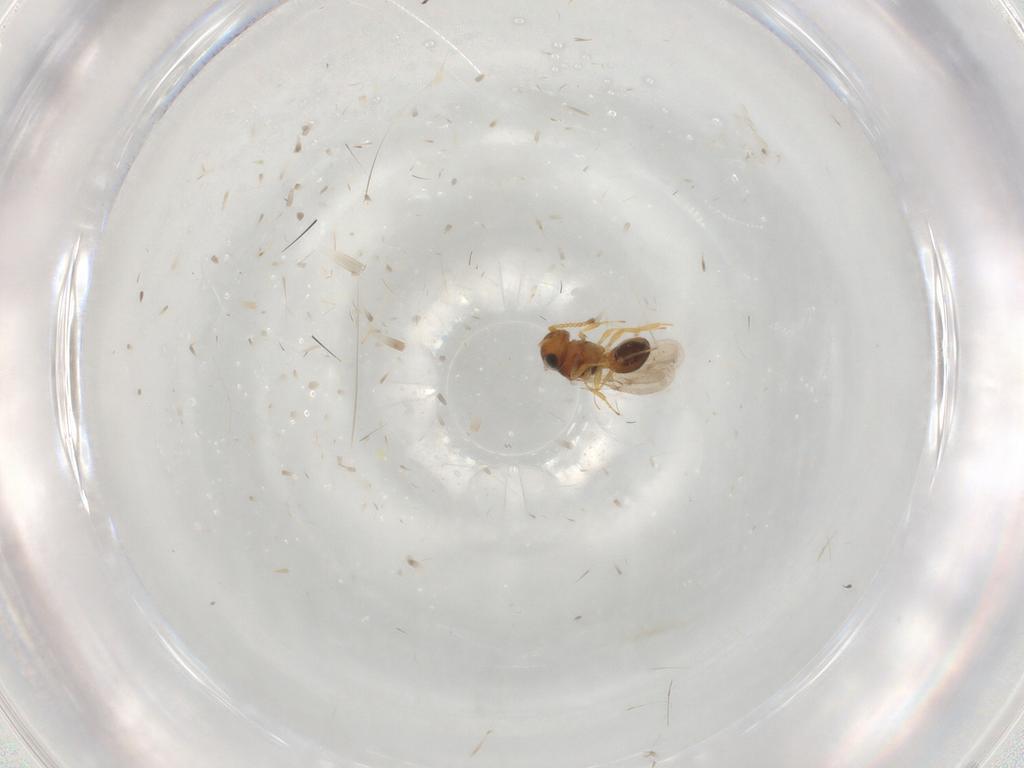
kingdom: Animalia
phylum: Arthropoda
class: Insecta
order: Hymenoptera
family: Scelionidae
